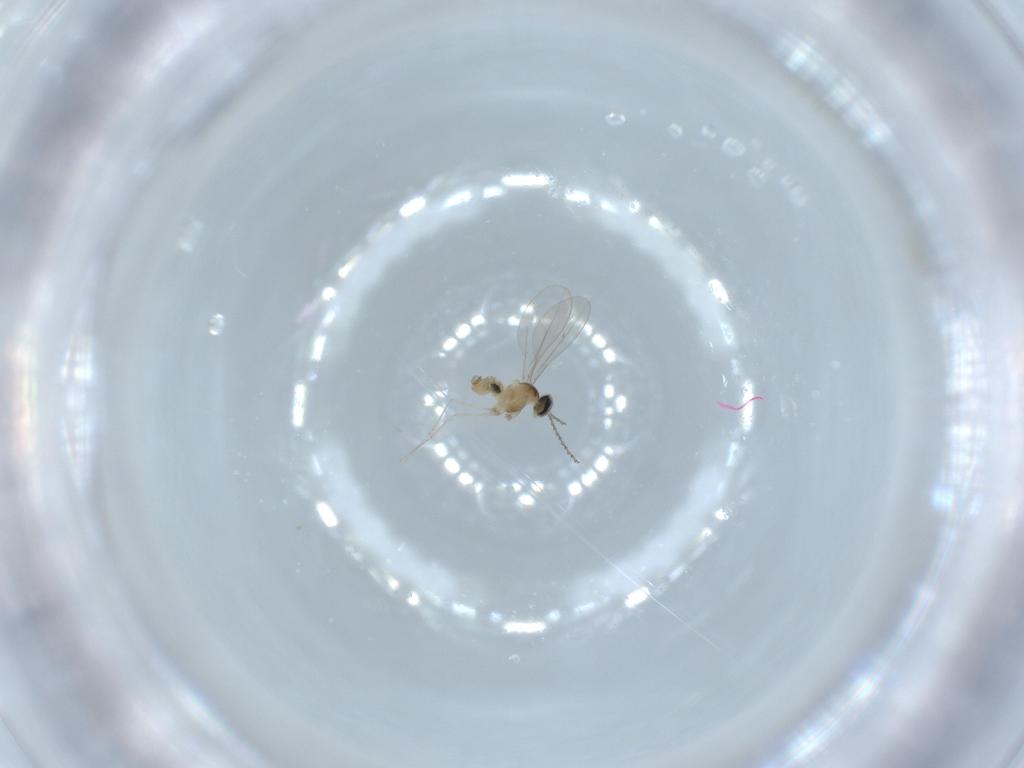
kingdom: Animalia
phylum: Arthropoda
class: Insecta
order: Diptera
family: Cecidomyiidae
